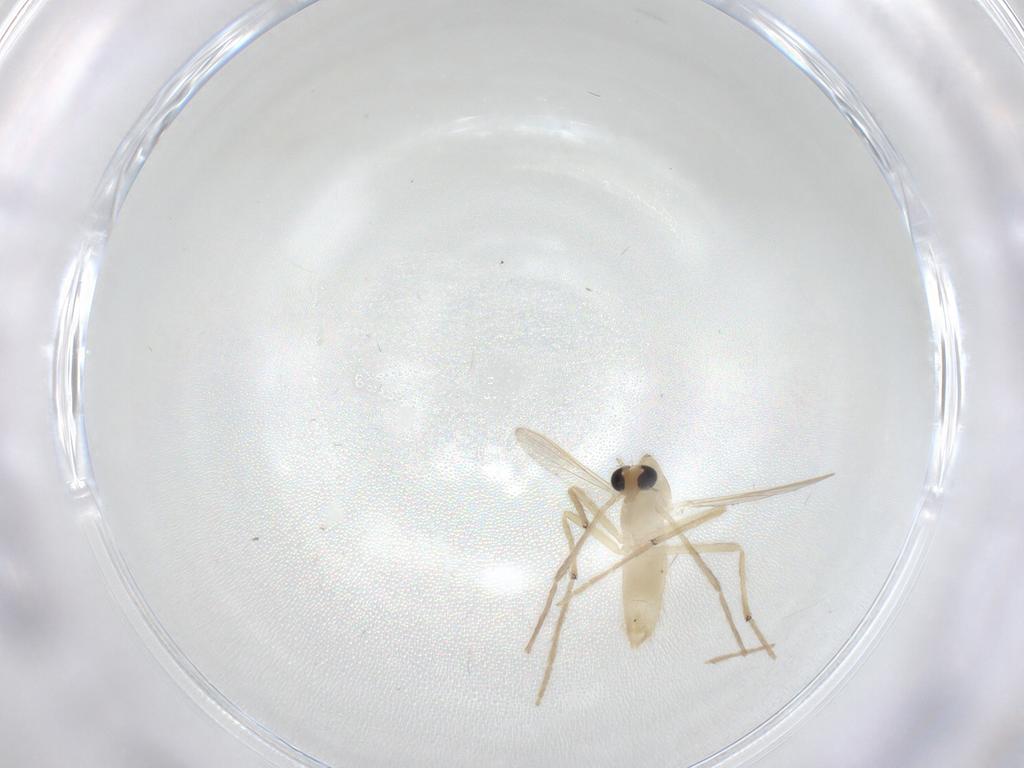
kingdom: Animalia
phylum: Arthropoda
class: Insecta
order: Diptera
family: Chironomidae
